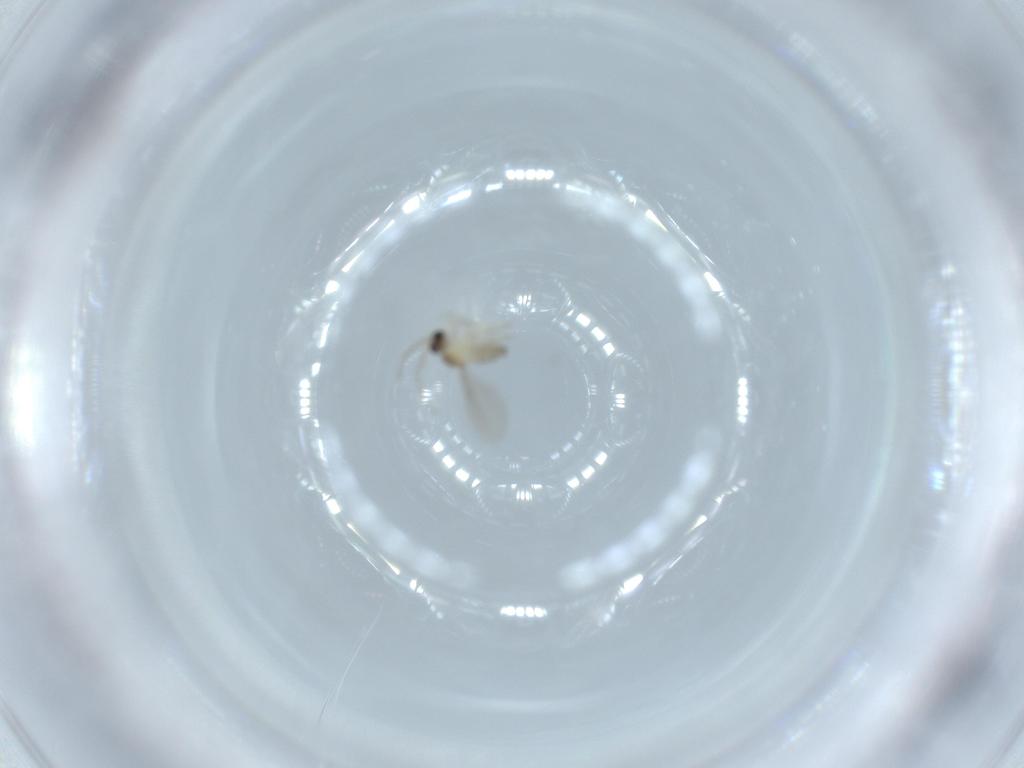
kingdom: Animalia
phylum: Arthropoda
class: Insecta
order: Diptera
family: Cecidomyiidae
